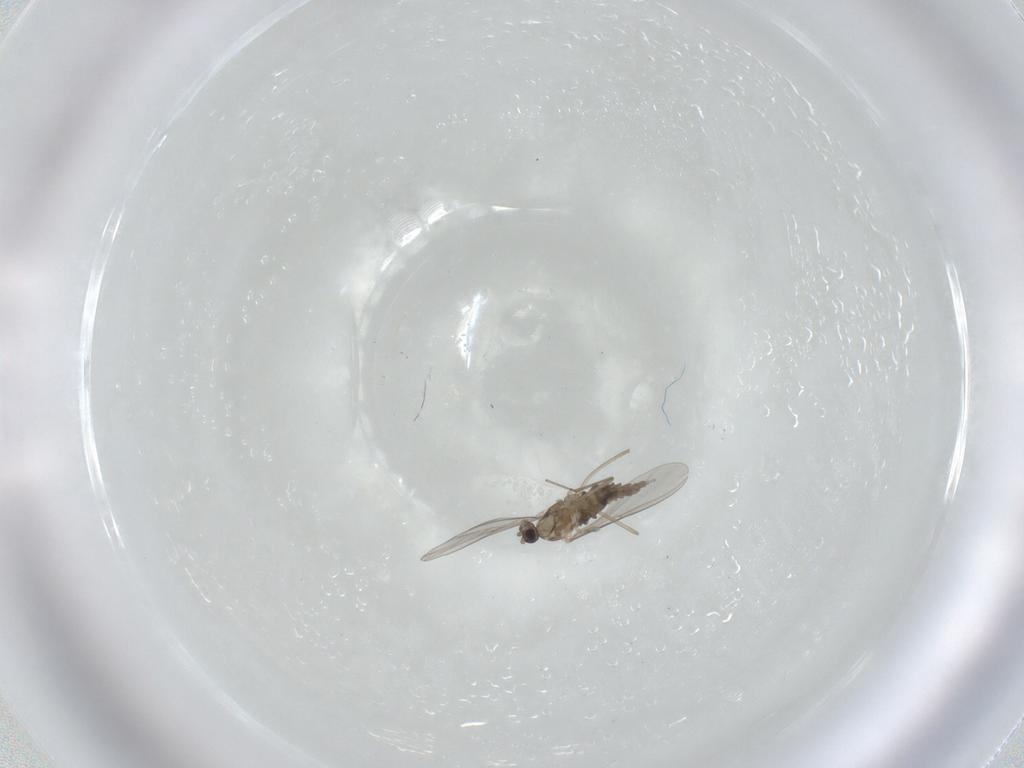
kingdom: Animalia
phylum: Arthropoda
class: Insecta
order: Diptera
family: Cecidomyiidae
